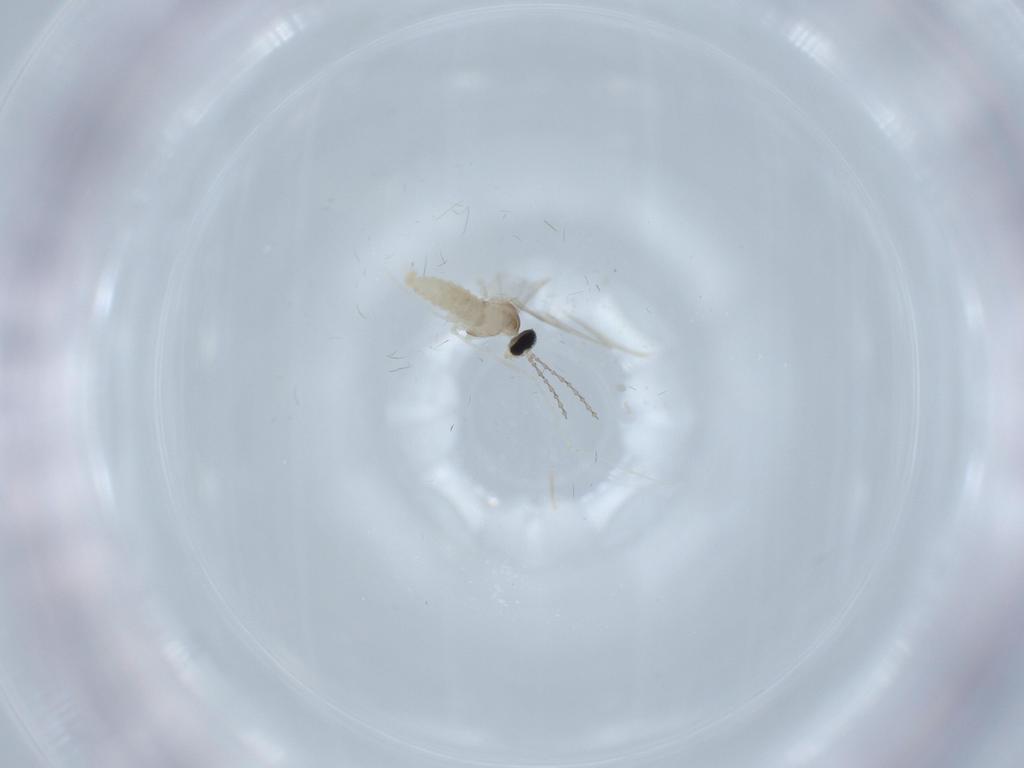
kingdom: Animalia
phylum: Arthropoda
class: Insecta
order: Diptera
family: Cecidomyiidae
